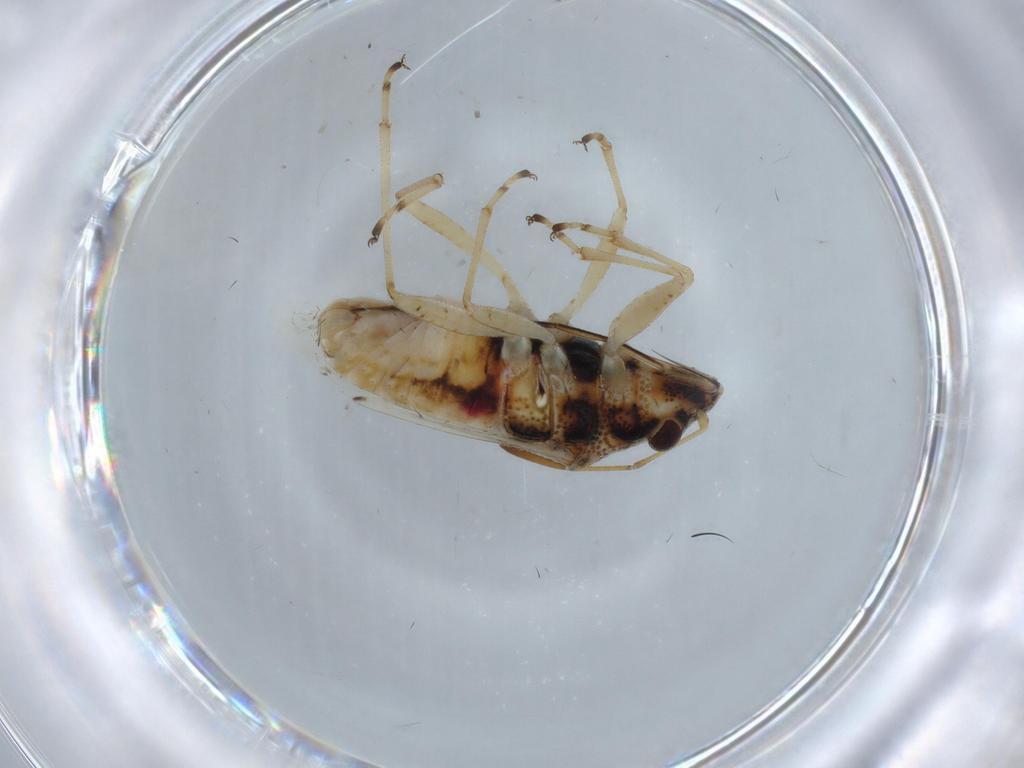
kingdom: Animalia
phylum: Arthropoda
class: Insecta
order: Hemiptera
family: Lygaeidae
